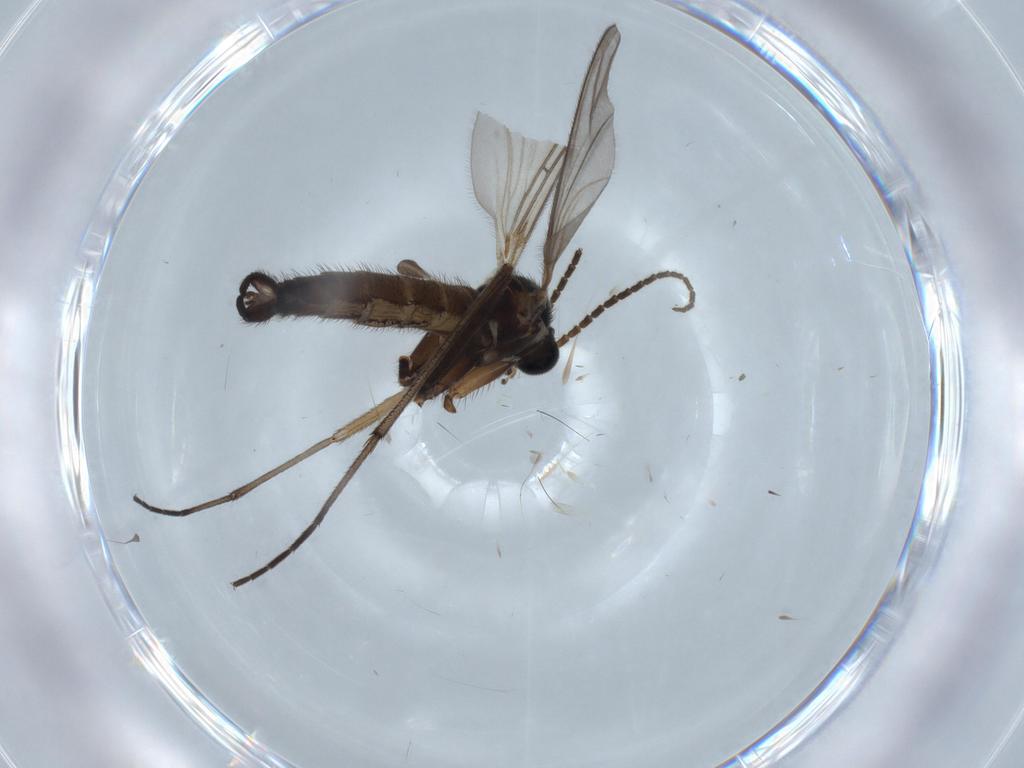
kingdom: Animalia
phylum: Arthropoda
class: Insecta
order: Diptera
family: Sciaridae
